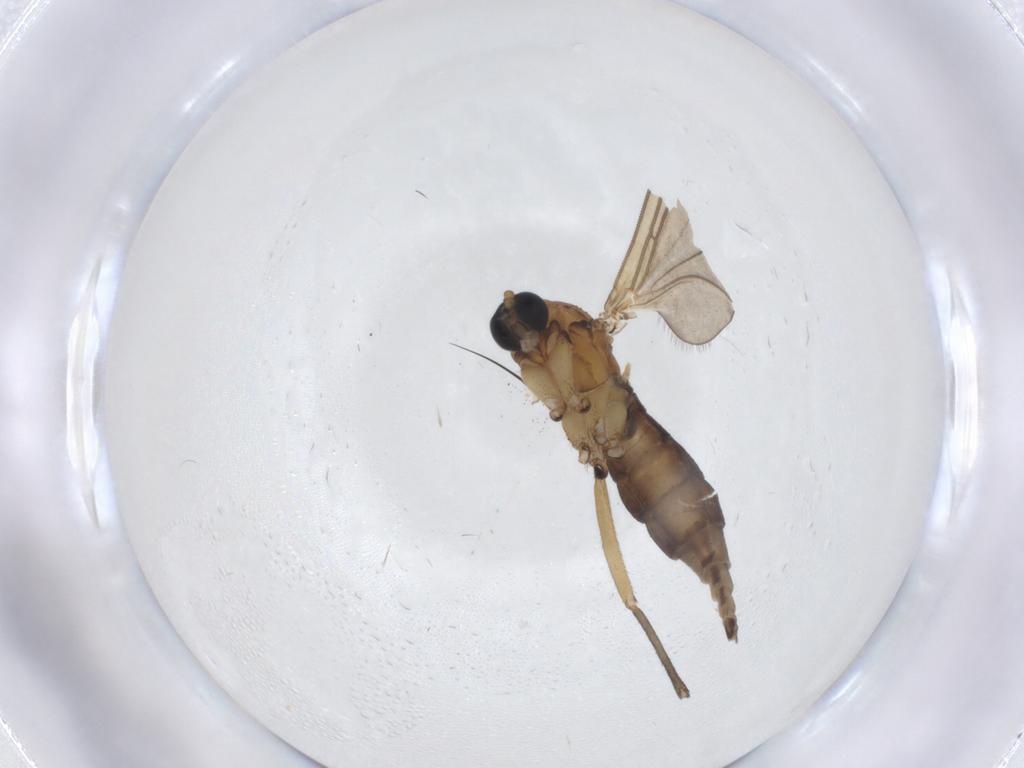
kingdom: Animalia
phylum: Arthropoda
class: Insecta
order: Diptera
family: Sciaridae
